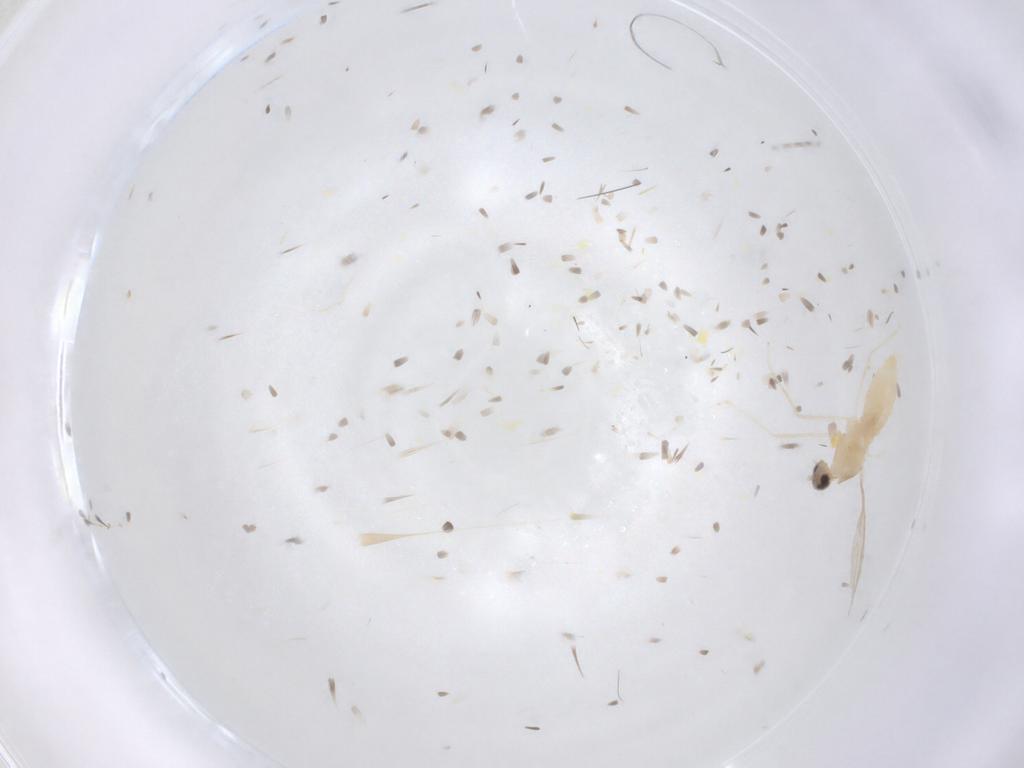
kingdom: Animalia
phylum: Arthropoda
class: Insecta
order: Diptera
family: Cecidomyiidae
